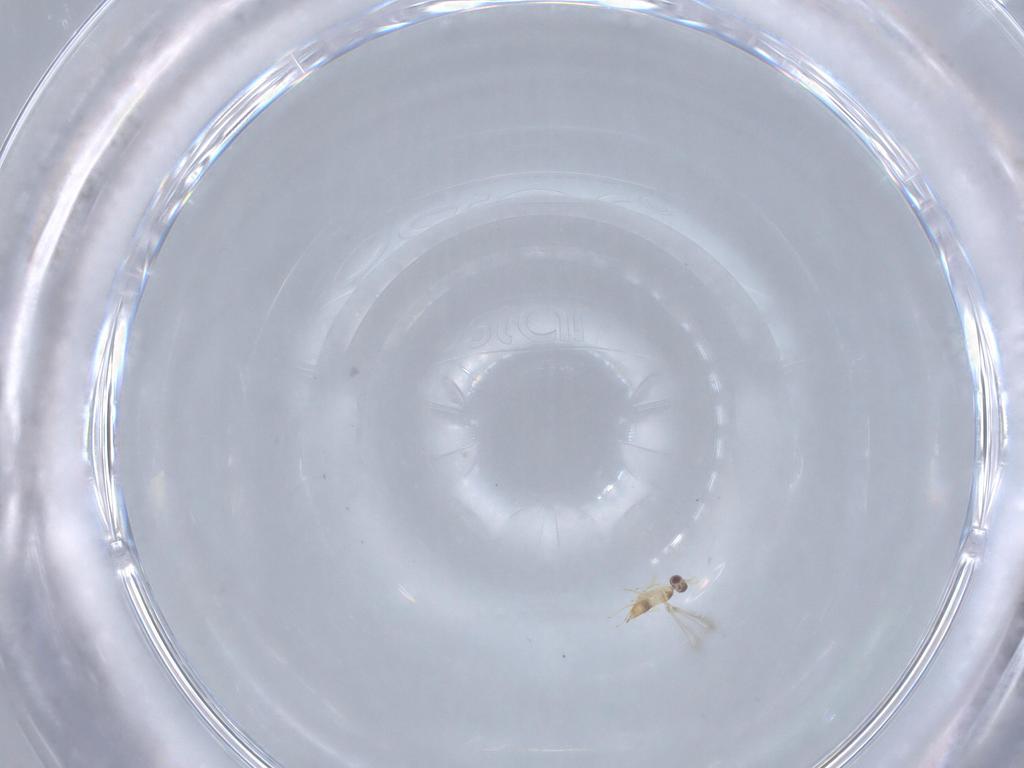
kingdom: Animalia
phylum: Arthropoda
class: Insecta
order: Hymenoptera
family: Mymaridae
